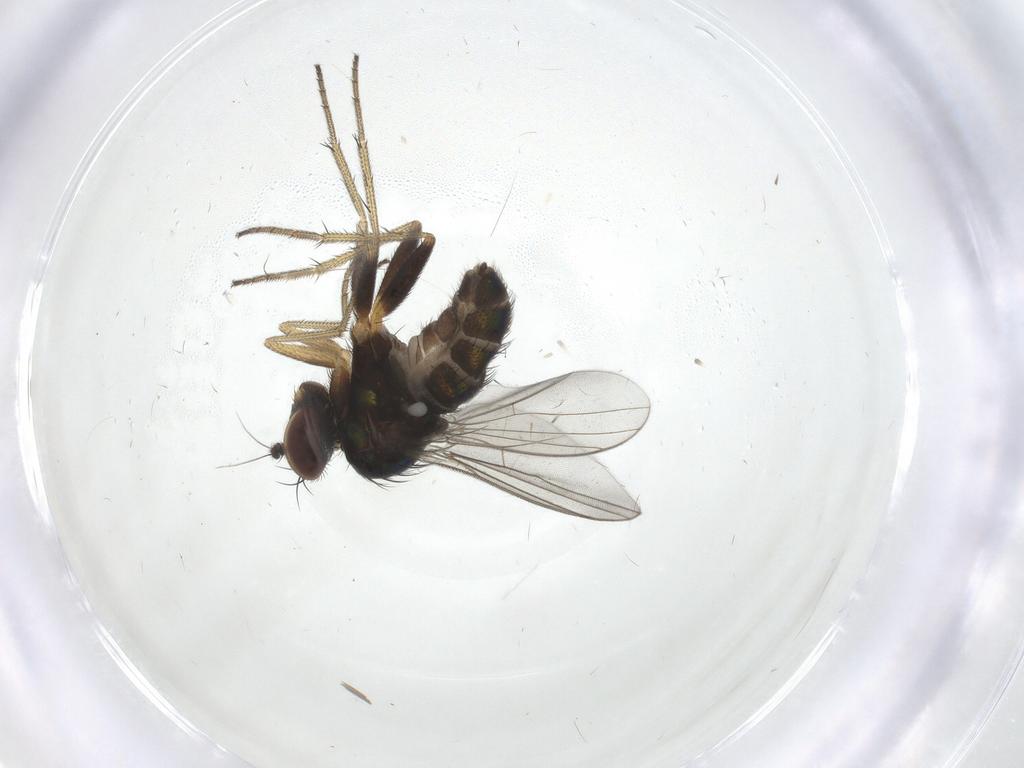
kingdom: Animalia
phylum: Arthropoda
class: Insecta
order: Diptera
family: Dolichopodidae
